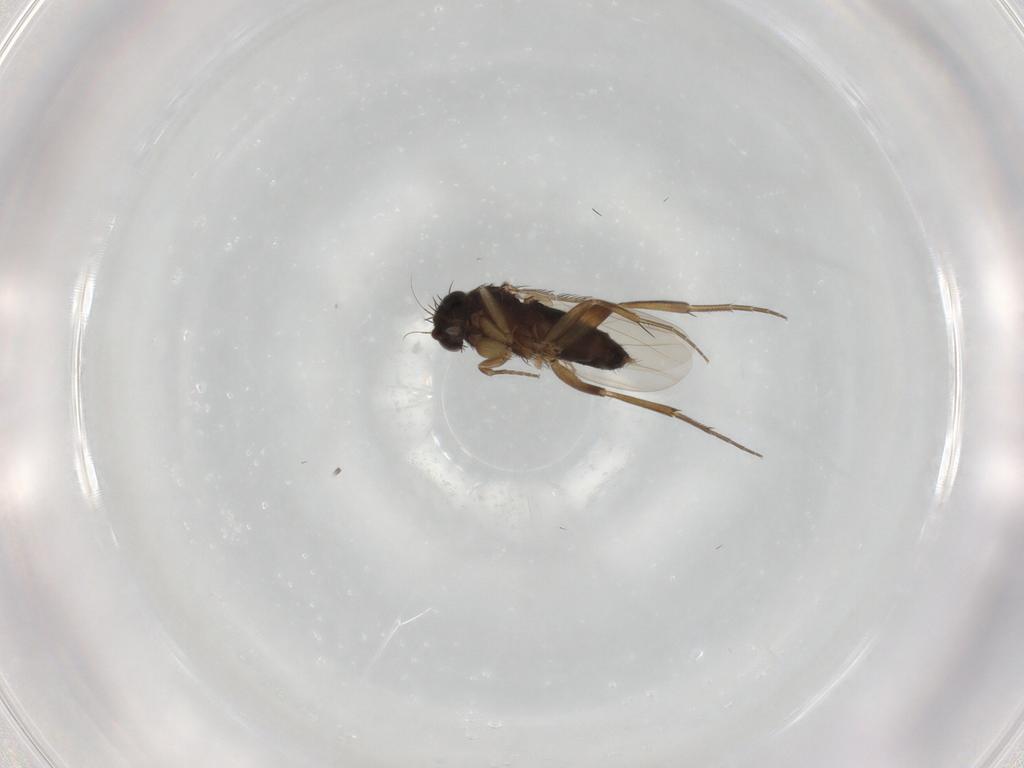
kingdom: Animalia
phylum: Arthropoda
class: Insecta
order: Diptera
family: Phoridae
